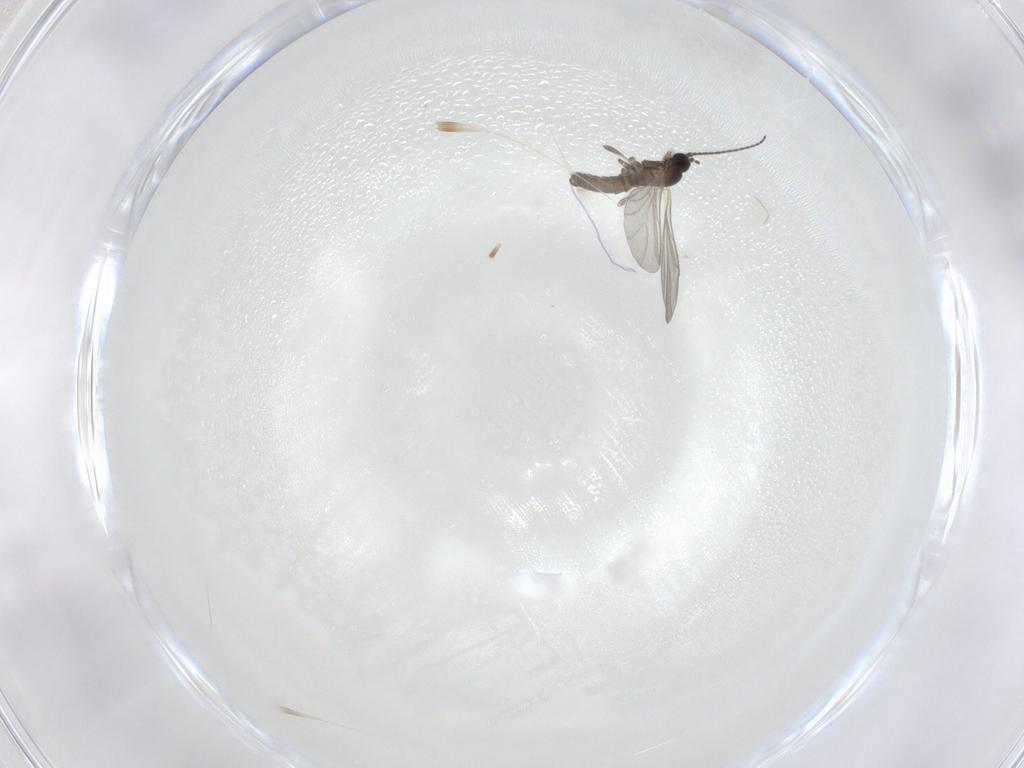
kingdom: Animalia
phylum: Arthropoda
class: Insecta
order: Diptera
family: Sciaridae
